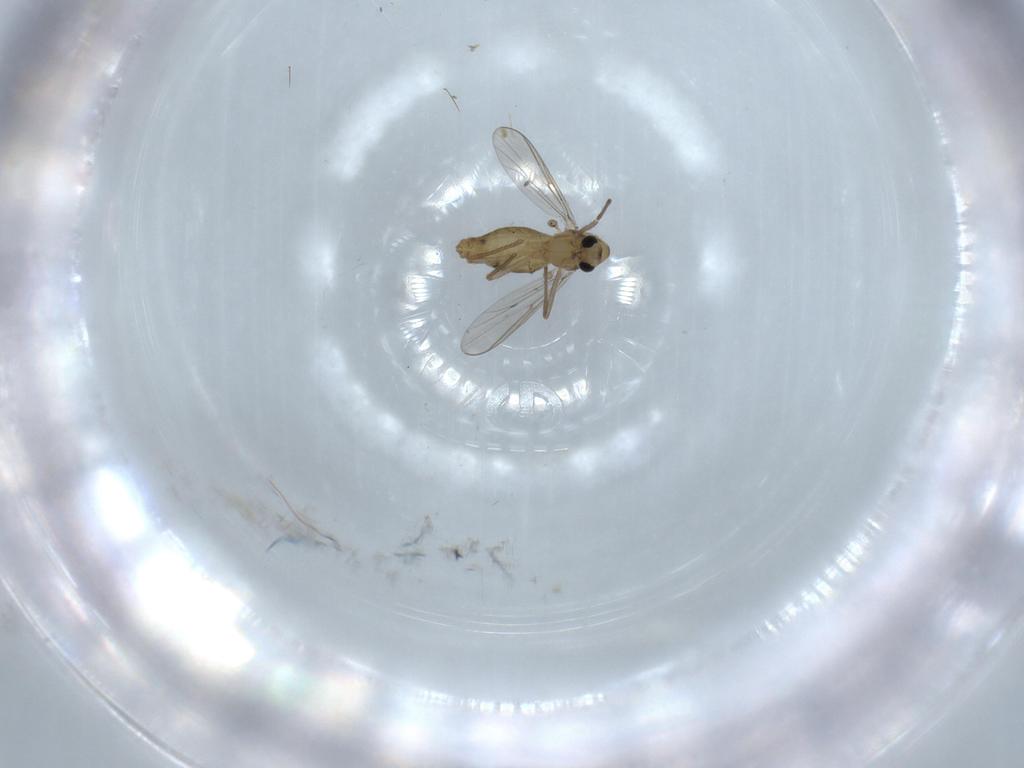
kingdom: Animalia
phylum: Arthropoda
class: Insecta
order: Diptera
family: Chironomidae
